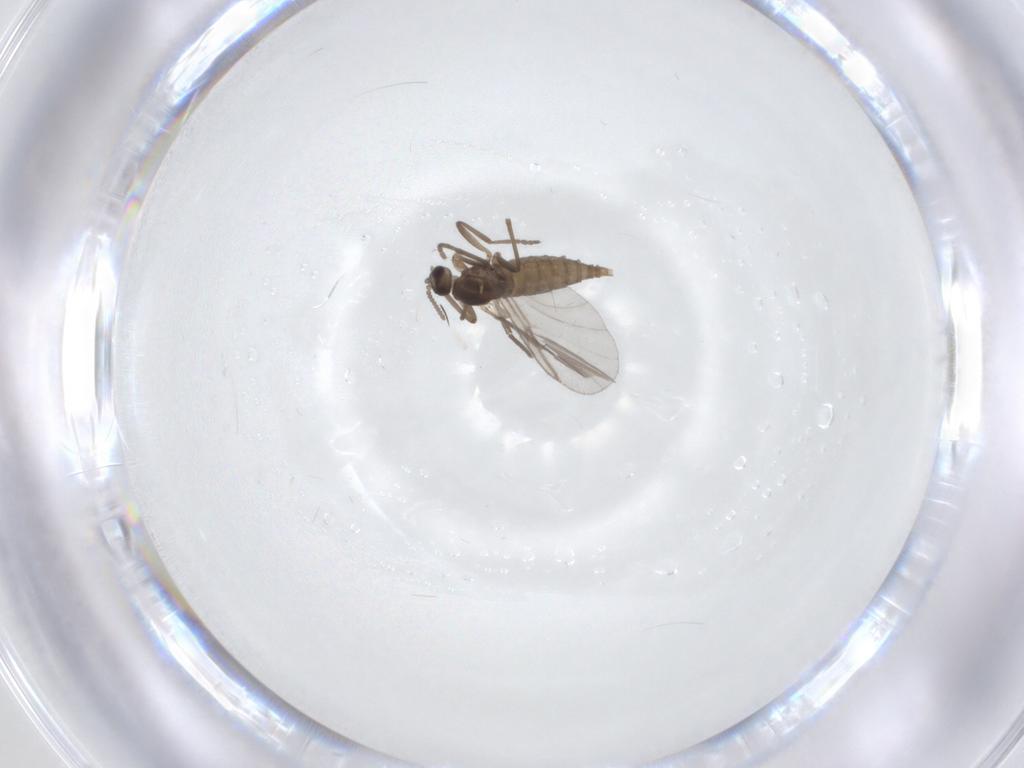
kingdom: Animalia
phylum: Arthropoda
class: Insecta
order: Diptera
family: Cecidomyiidae
